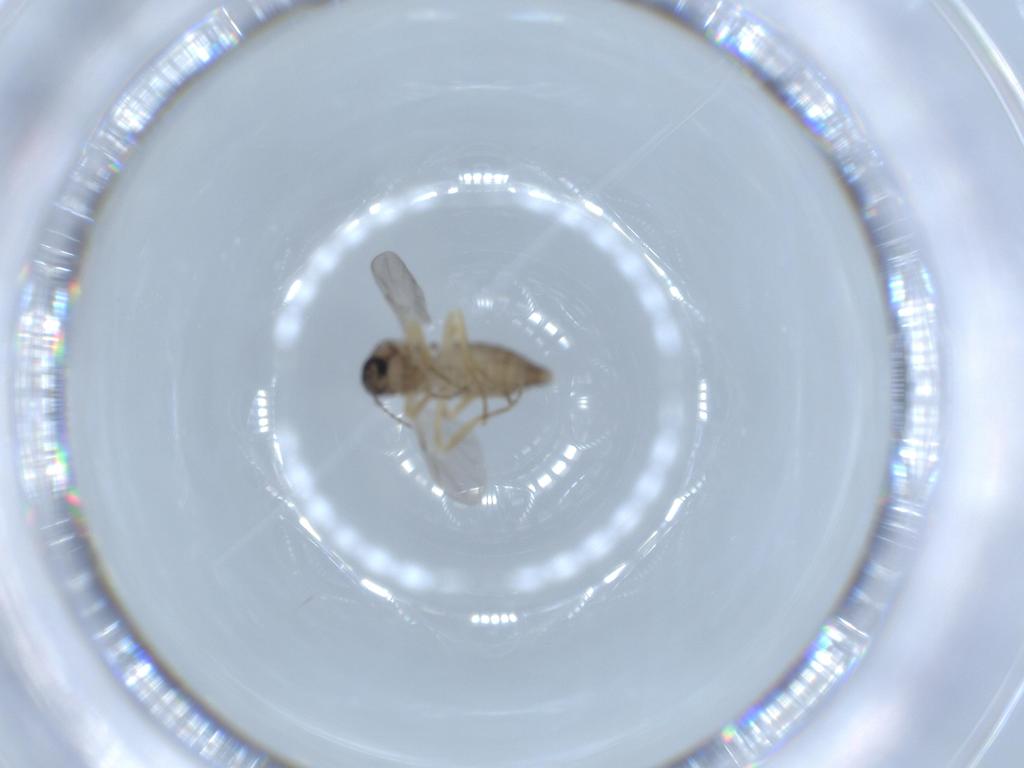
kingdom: Animalia
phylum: Arthropoda
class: Insecta
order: Diptera
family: Ceratopogonidae
